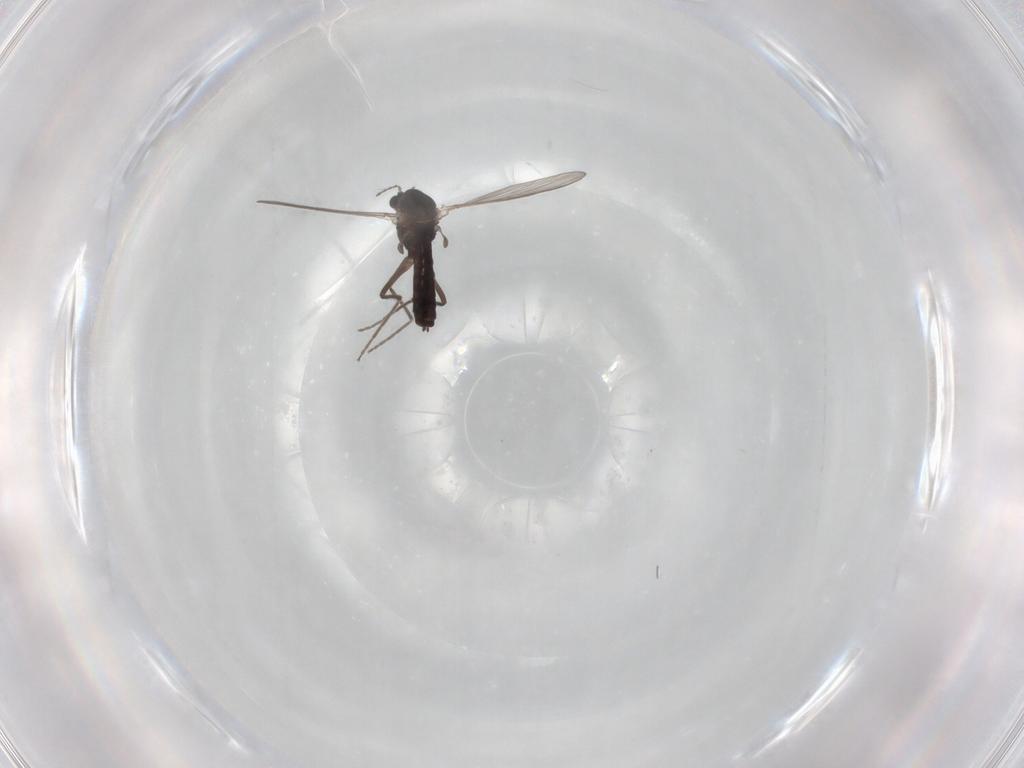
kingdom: Animalia
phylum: Arthropoda
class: Insecta
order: Diptera
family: Chironomidae
